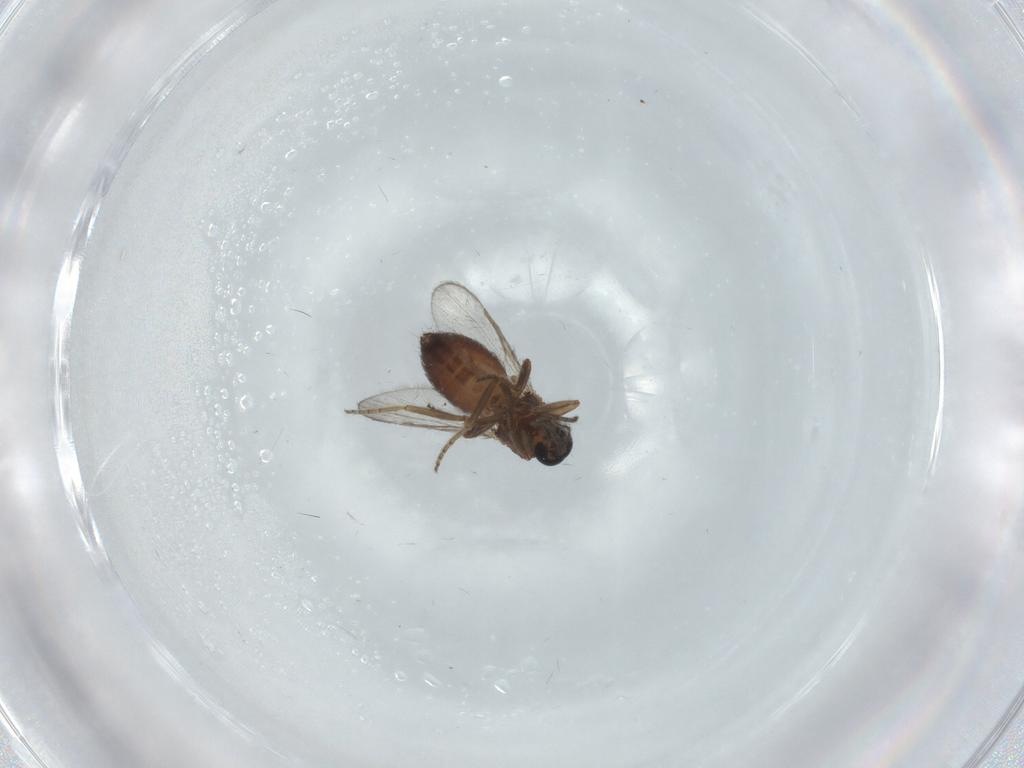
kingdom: Animalia
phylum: Arthropoda
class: Insecta
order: Diptera
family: Ceratopogonidae
